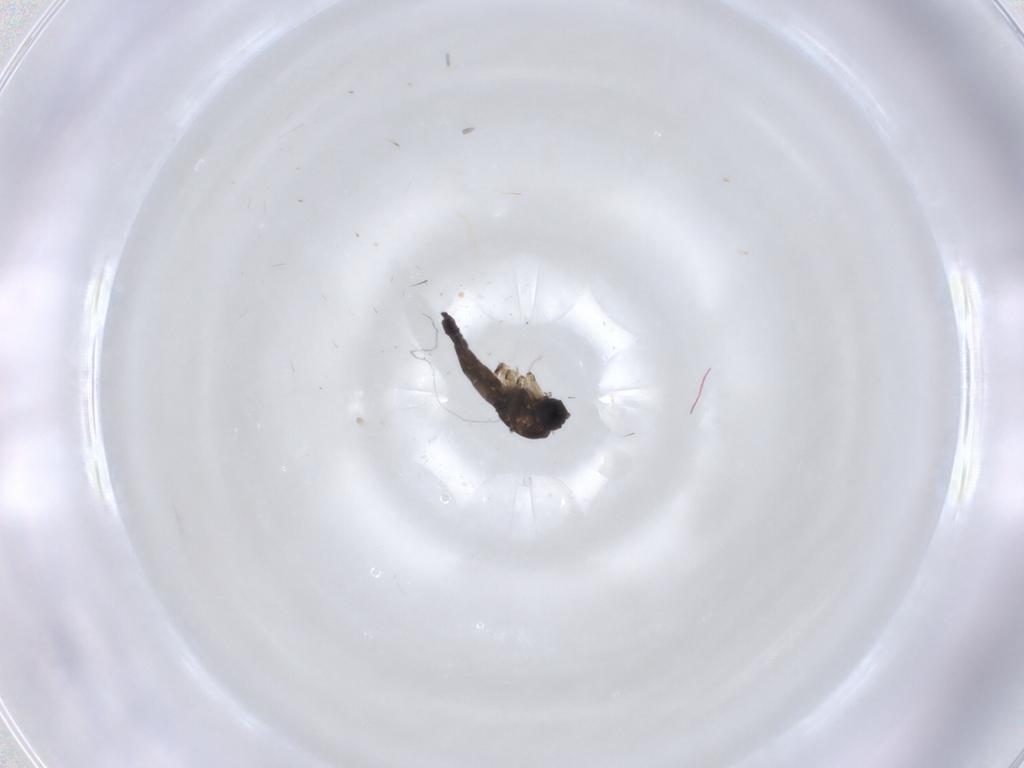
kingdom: Animalia
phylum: Arthropoda
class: Insecta
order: Diptera
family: Sciaridae
